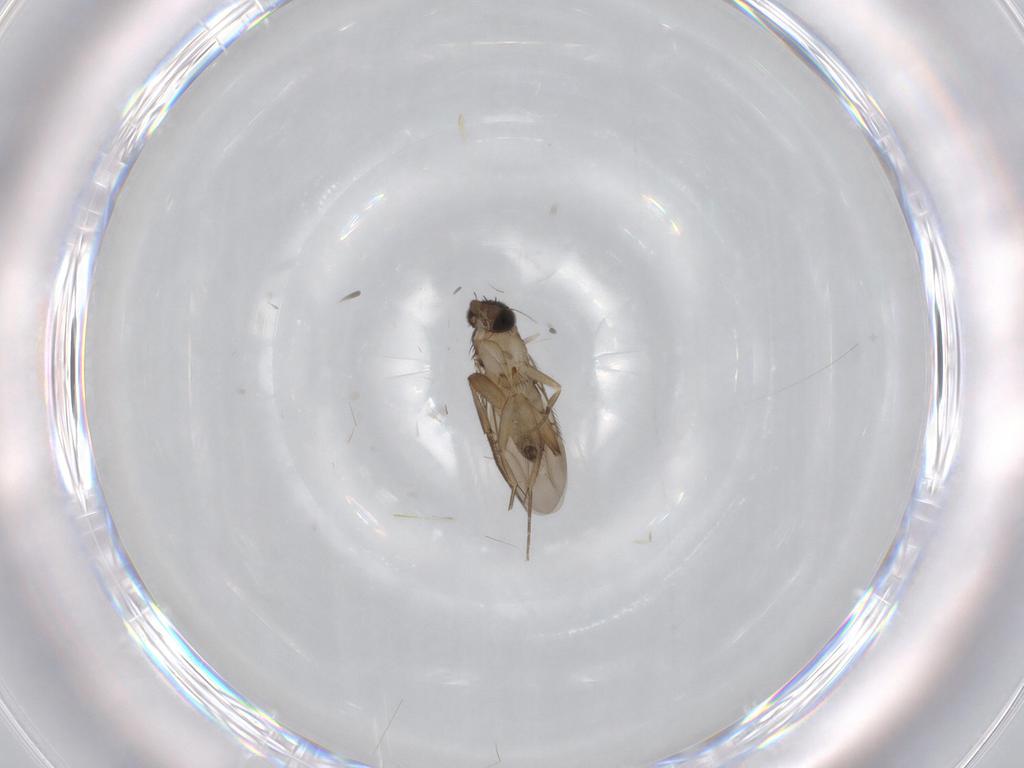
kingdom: Animalia
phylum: Arthropoda
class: Insecta
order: Diptera
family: Phoridae
